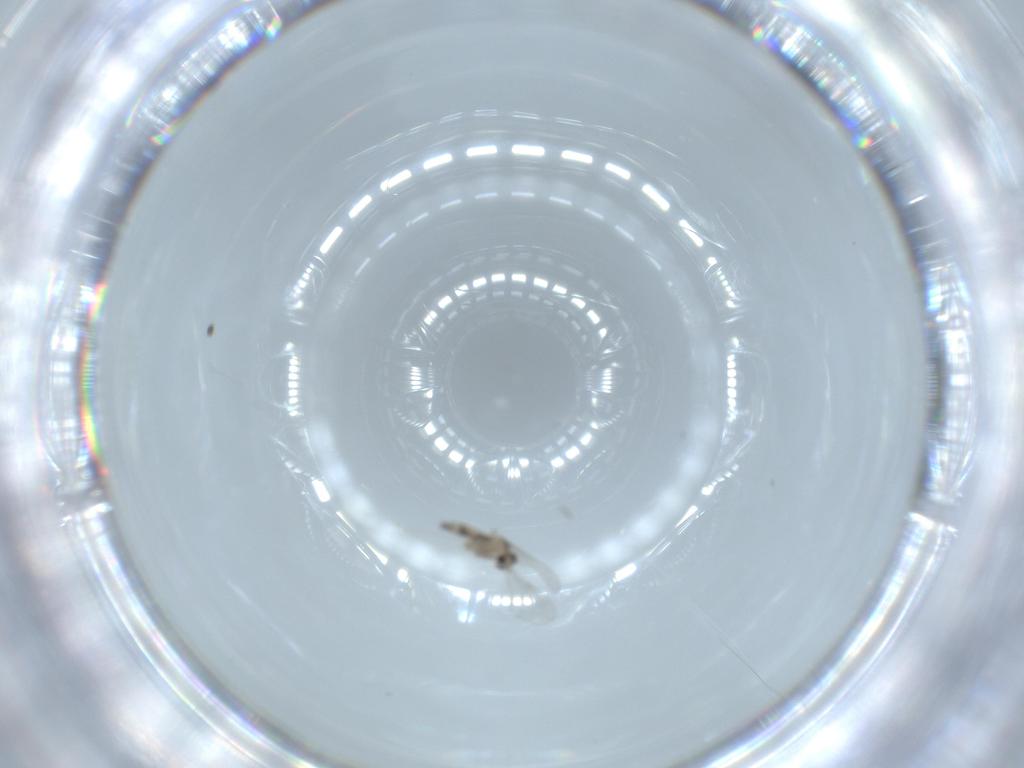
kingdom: Animalia
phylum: Arthropoda
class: Insecta
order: Diptera
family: Cecidomyiidae
